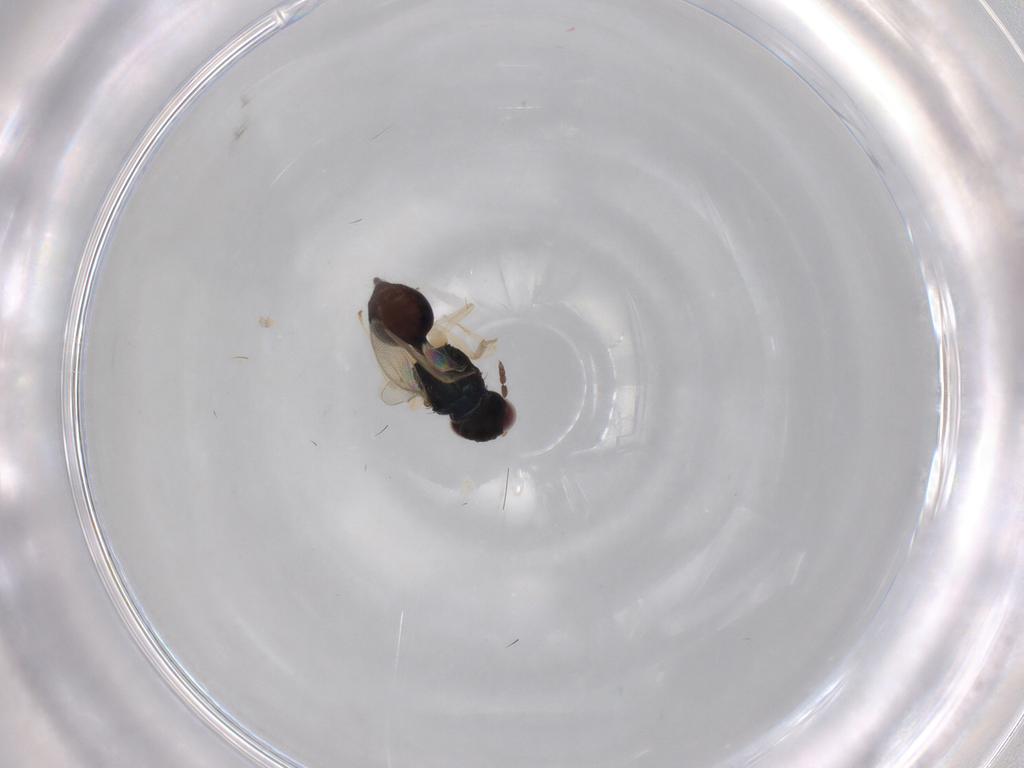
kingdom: Animalia
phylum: Arthropoda
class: Insecta
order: Hymenoptera
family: Eulophidae
